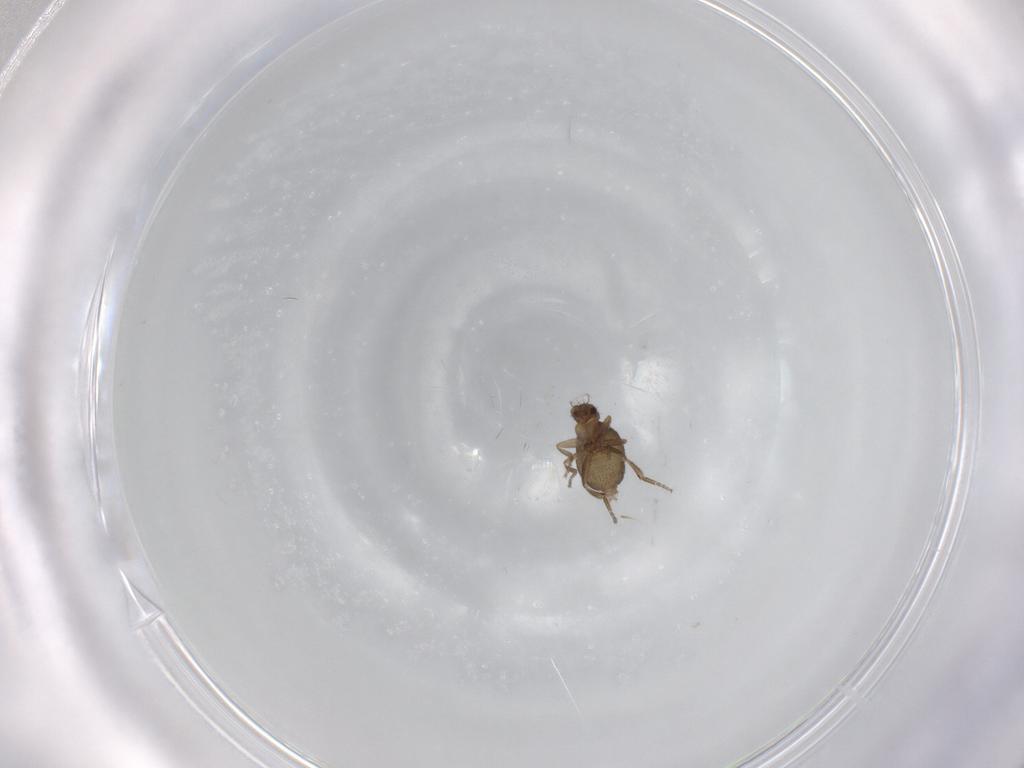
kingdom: Animalia
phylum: Arthropoda
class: Insecta
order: Diptera
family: Phoridae
